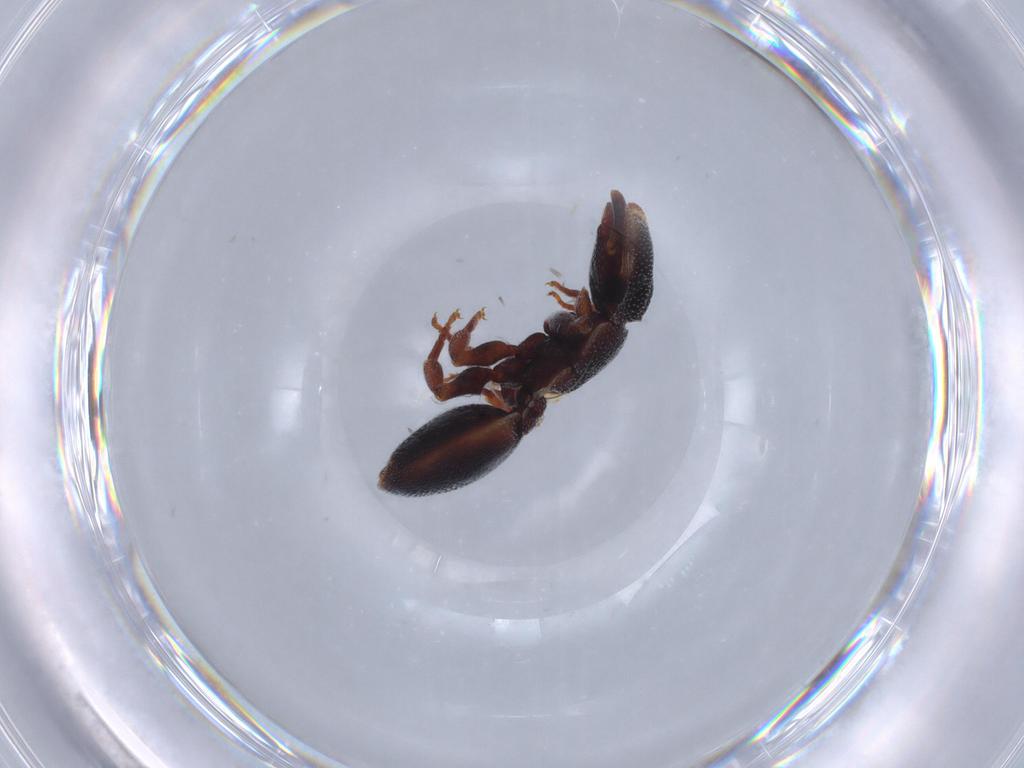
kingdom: Animalia
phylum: Arthropoda
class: Insecta
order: Hymenoptera
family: Formicidae
